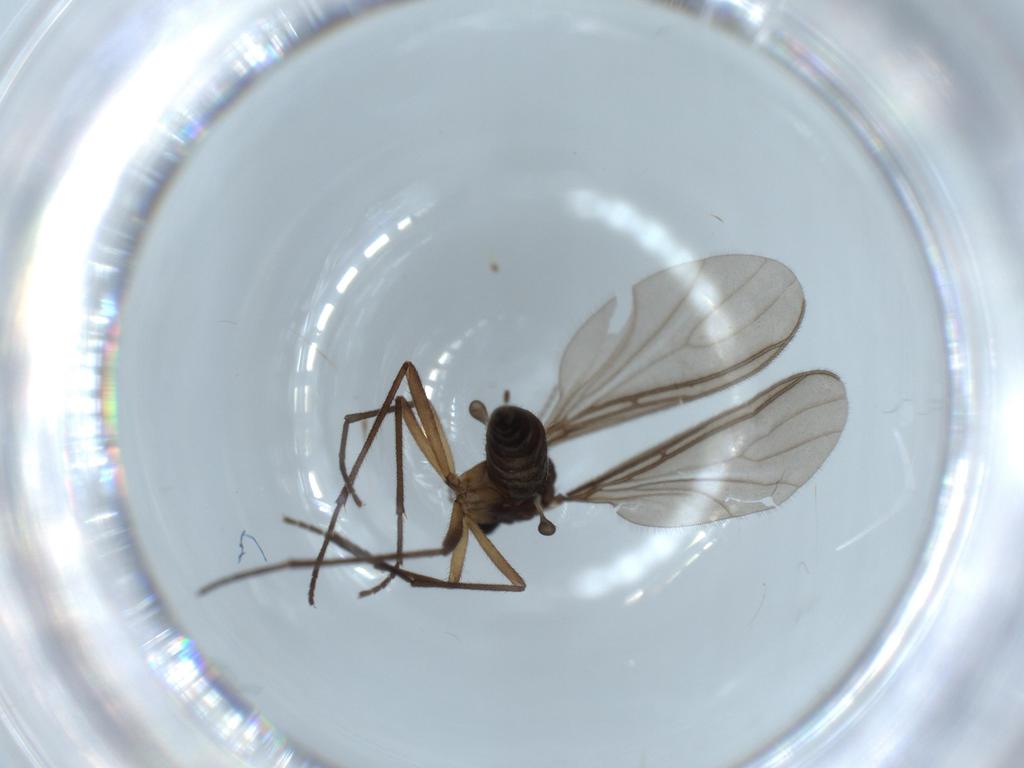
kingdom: Animalia
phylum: Arthropoda
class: Insecta
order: Diptera
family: Sciaridae
